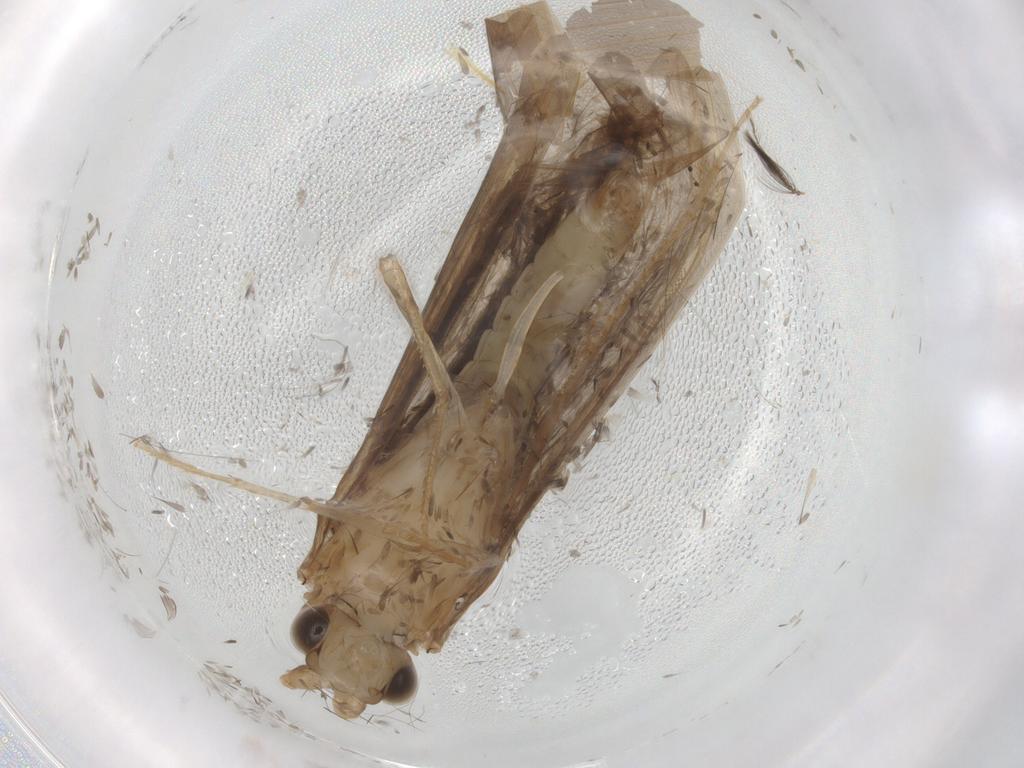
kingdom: Animalia
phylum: Arthropoda
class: Insecta
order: Trichoptera
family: Leptoceridae
